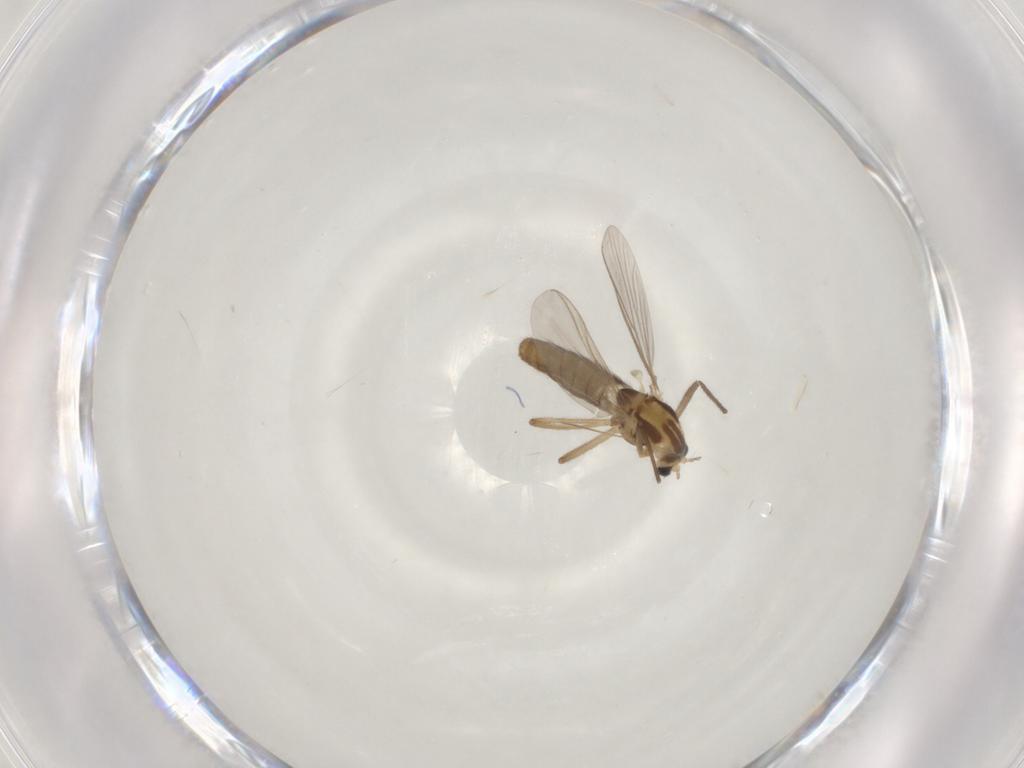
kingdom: Animalia
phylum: Arthropoda
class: Insecta
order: Diptera
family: Chironomidae
